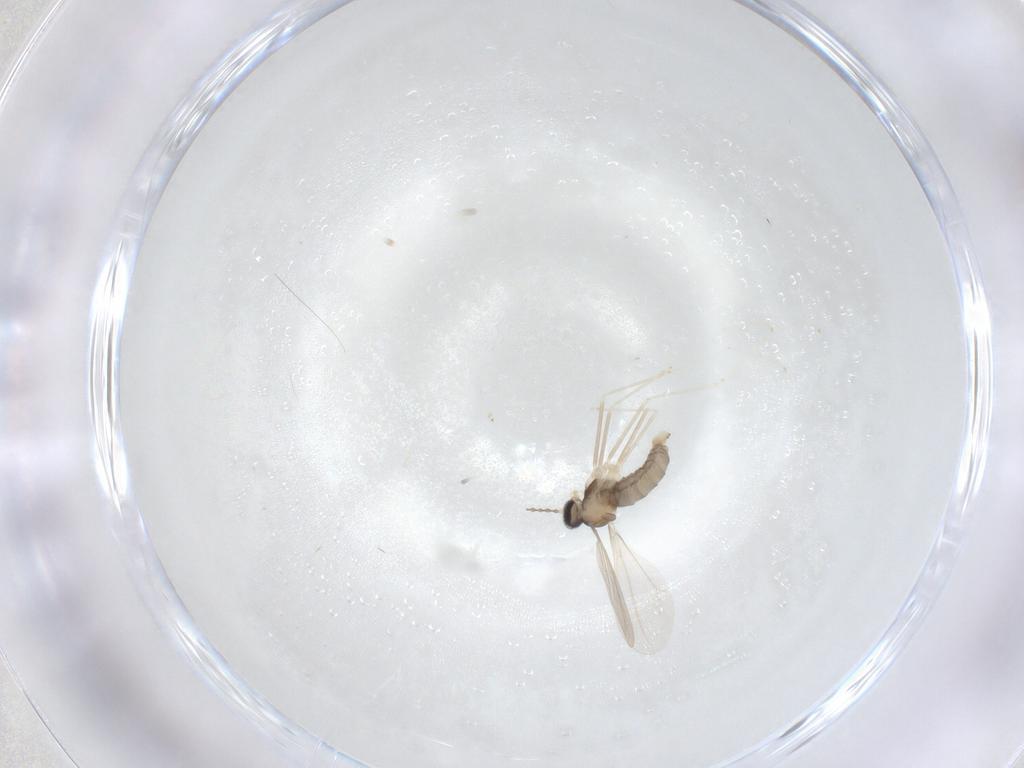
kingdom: Animalia
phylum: Arthropoda
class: Insecta
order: Diptera
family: Cecidomyiidae
